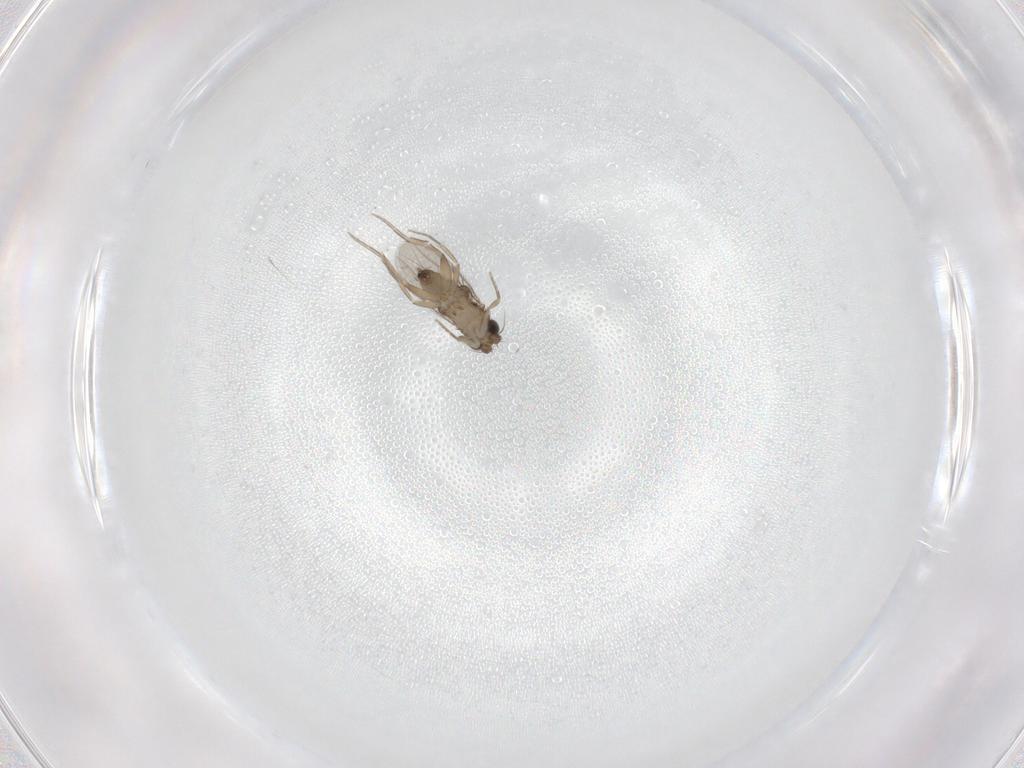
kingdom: Animalia
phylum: Arthropoda
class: Insecta
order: Diptera
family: Phoridae
